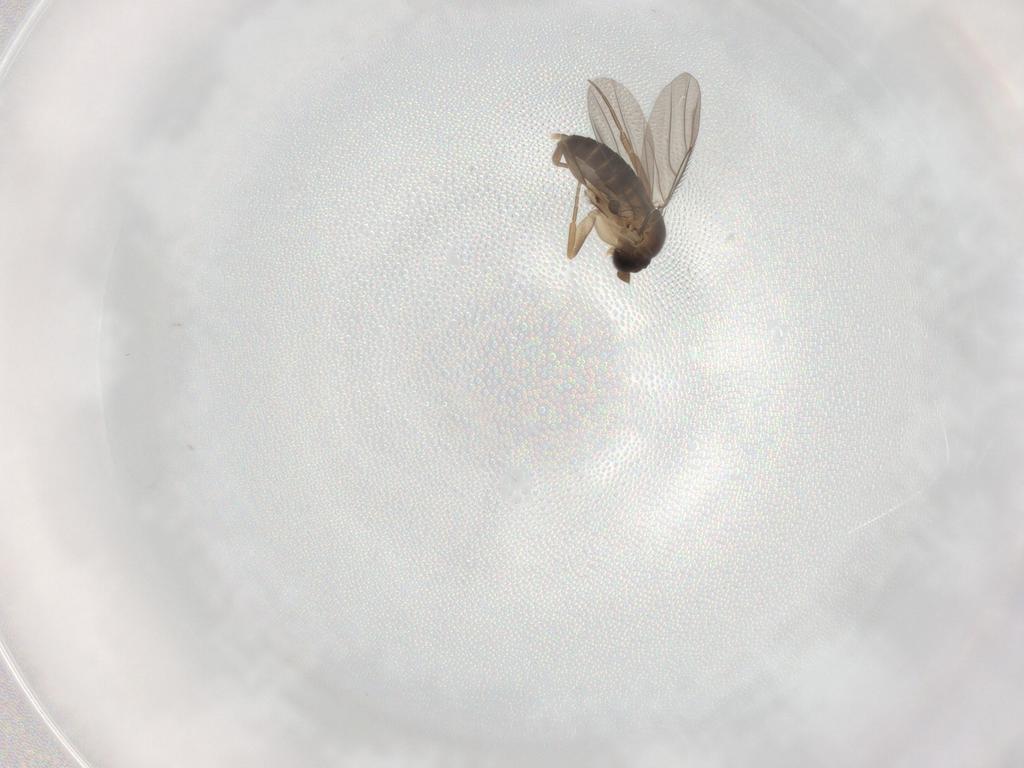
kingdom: Animalia
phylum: Arthropoda
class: Insecta
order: Diptera
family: Phoridae
